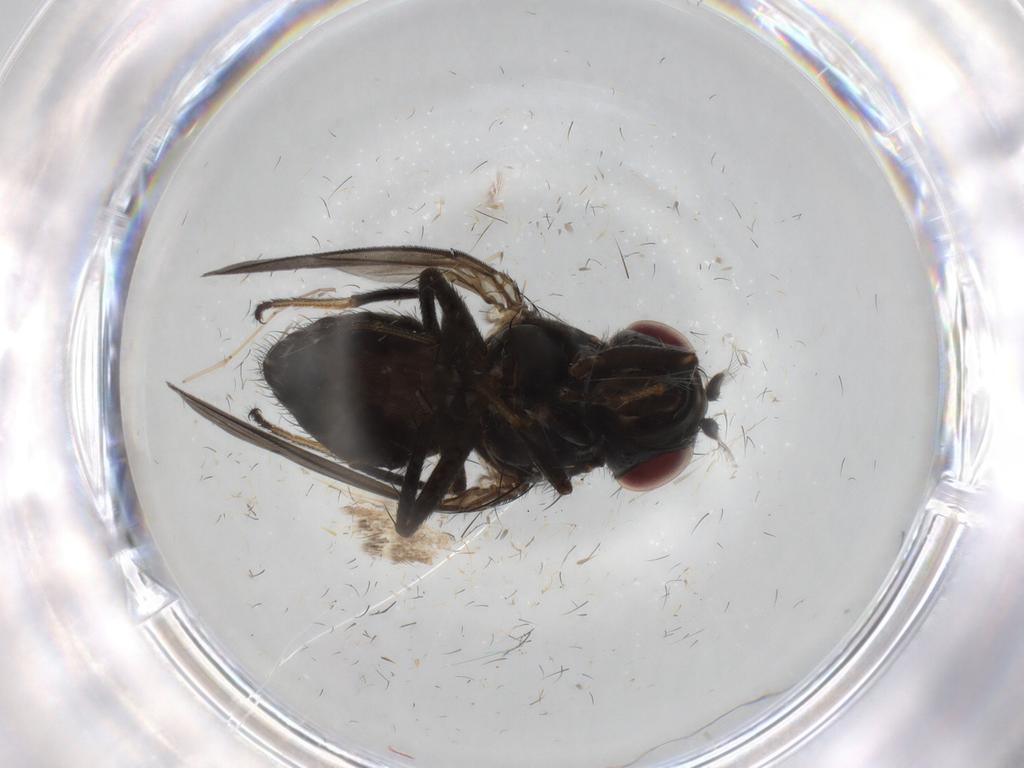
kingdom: Animalia
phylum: Arthropoda
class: Insecta
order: Diptera
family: Ephydridae
